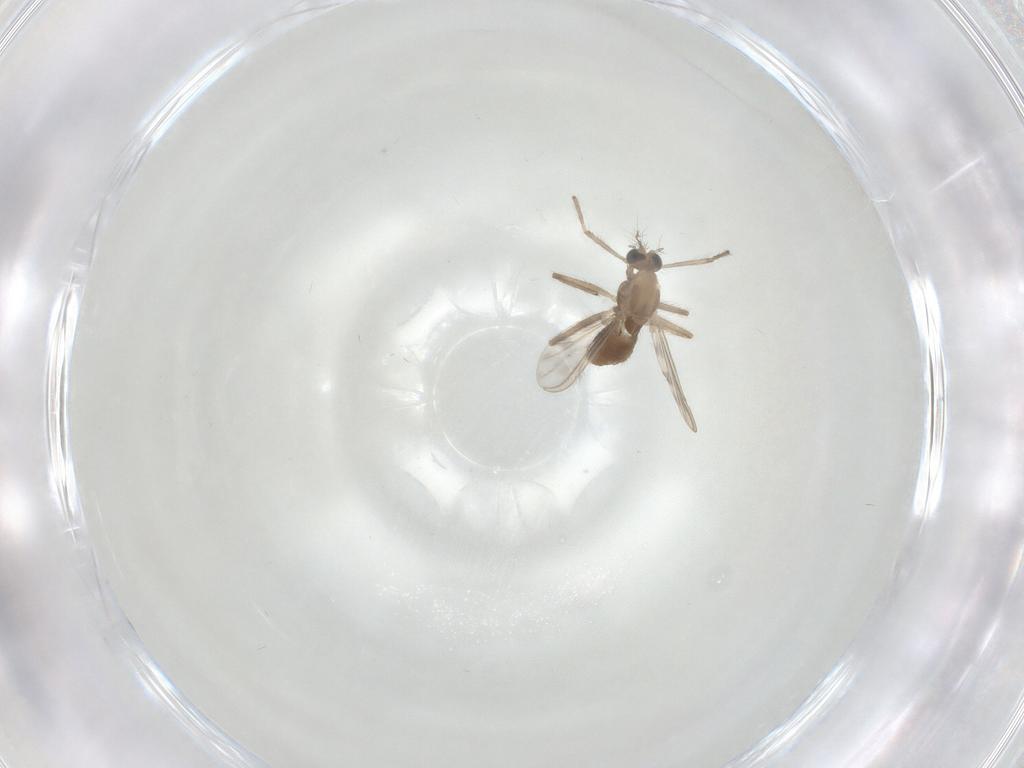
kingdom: Animalia
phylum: Arthropoda
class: Insecta
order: Diptera
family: Chironomidae
